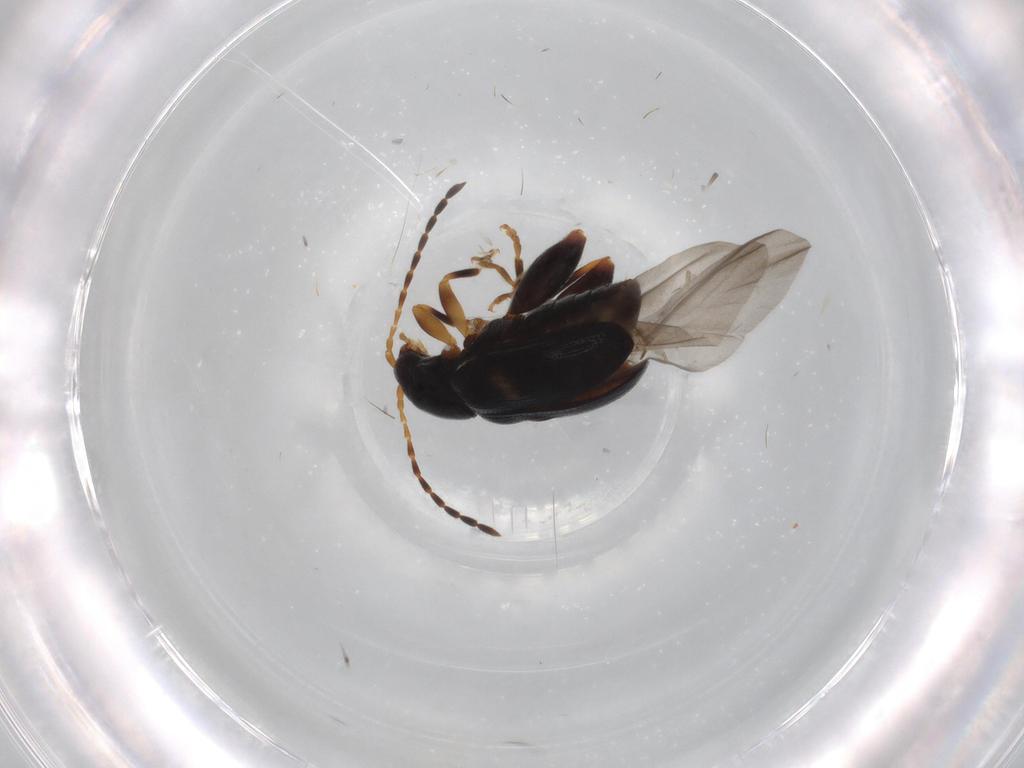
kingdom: Animalia
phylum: Arthropoda
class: Insecta
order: Coleoptera
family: Chrysomelidae
